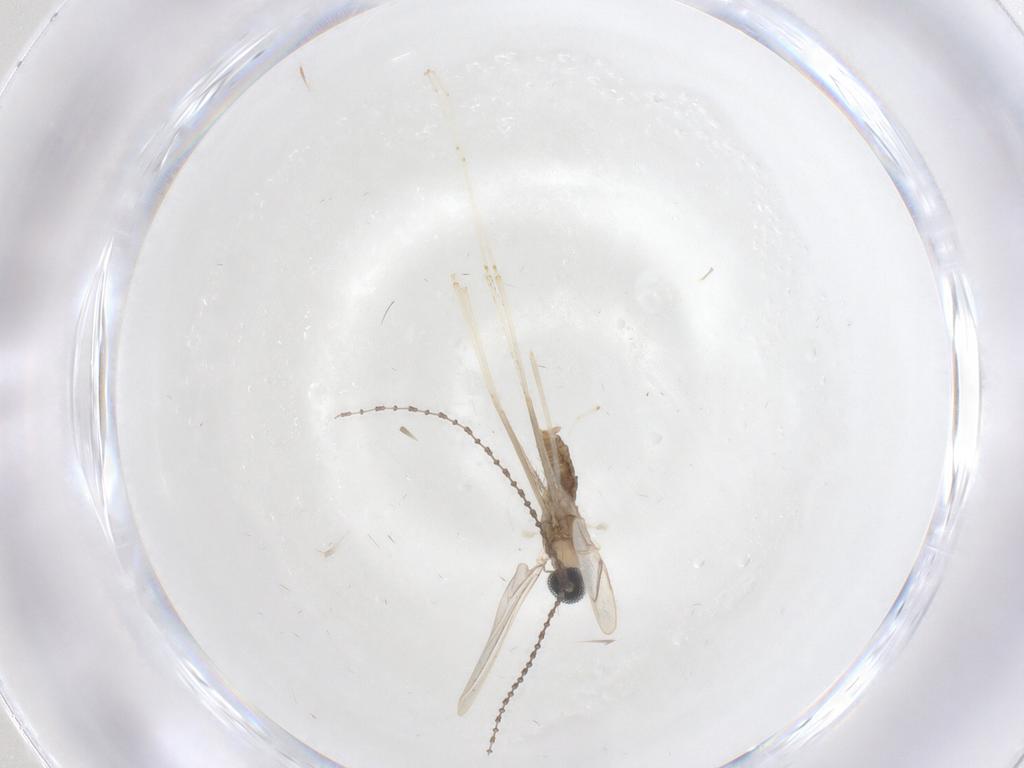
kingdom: Animalia
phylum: Arthropoda
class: Insecta
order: Diptera
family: Cecidomyiidae
